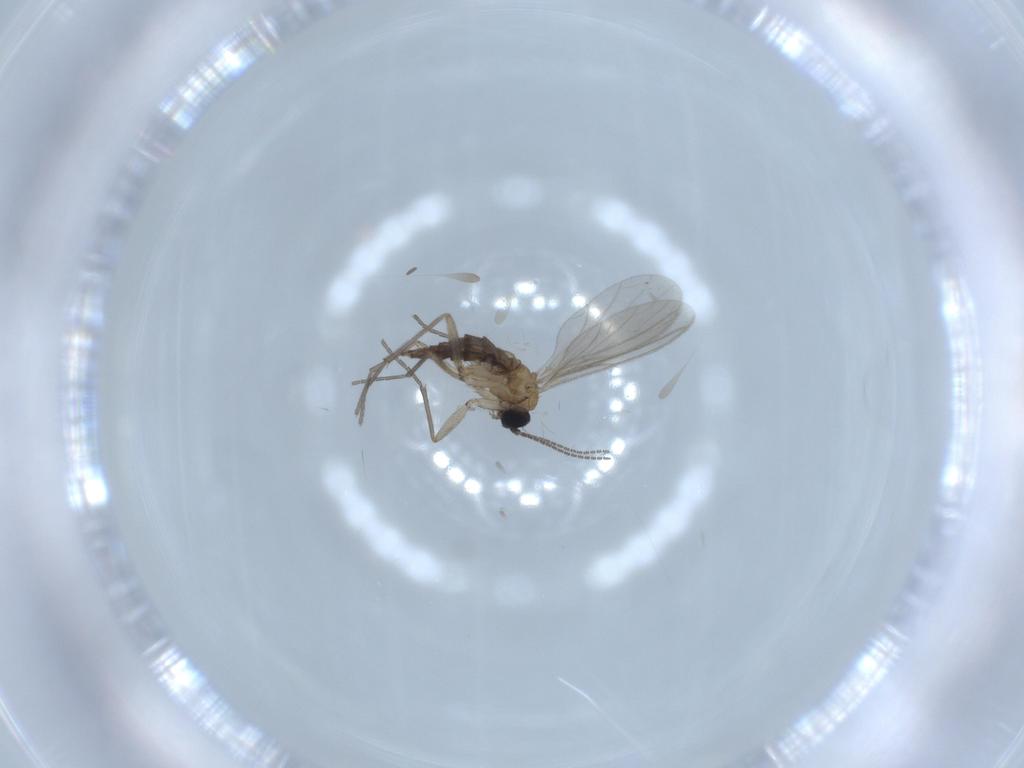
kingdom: Animalia
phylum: Arthropoda
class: Insecta
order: Diptera
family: Sciaridae
